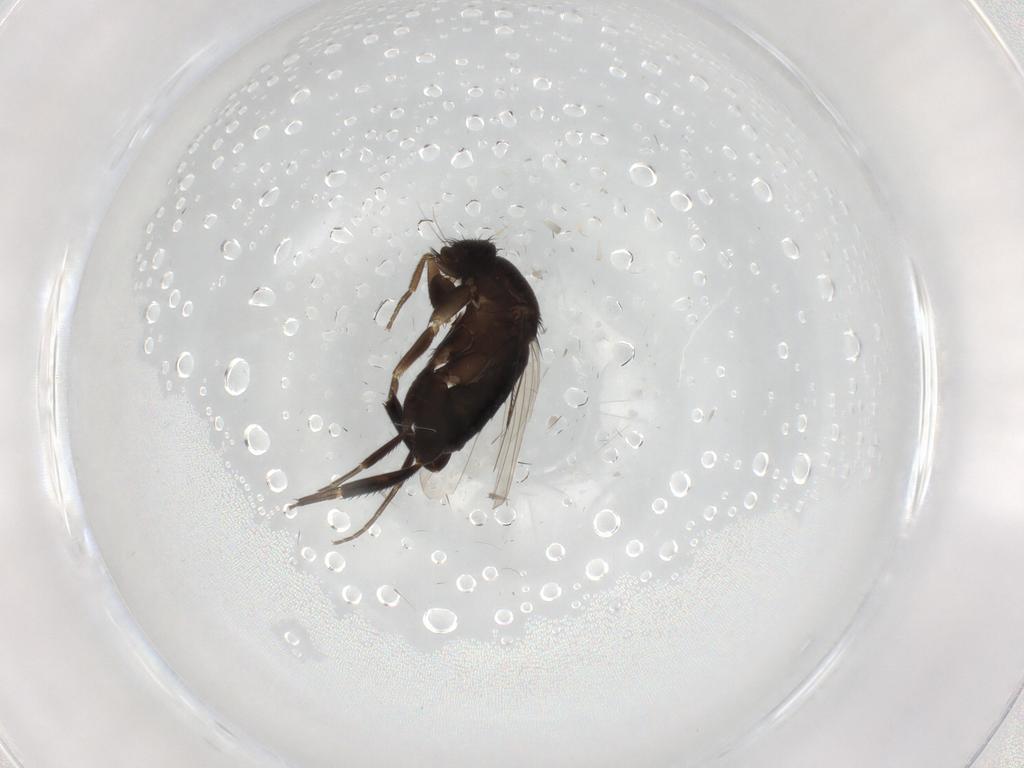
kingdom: Animalia
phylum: Arthropoda
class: Insecta
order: Diptera
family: Phoridae
